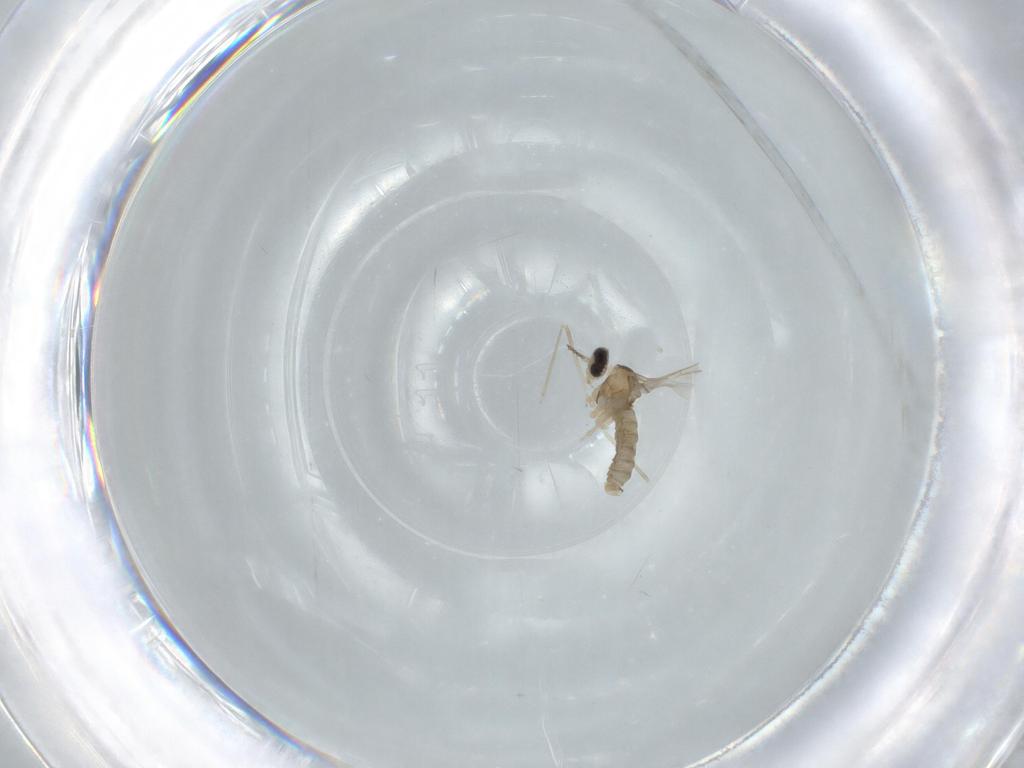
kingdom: Animalia
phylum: Arthropoda
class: Insecta
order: Diptera
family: Cecidomyiidae
